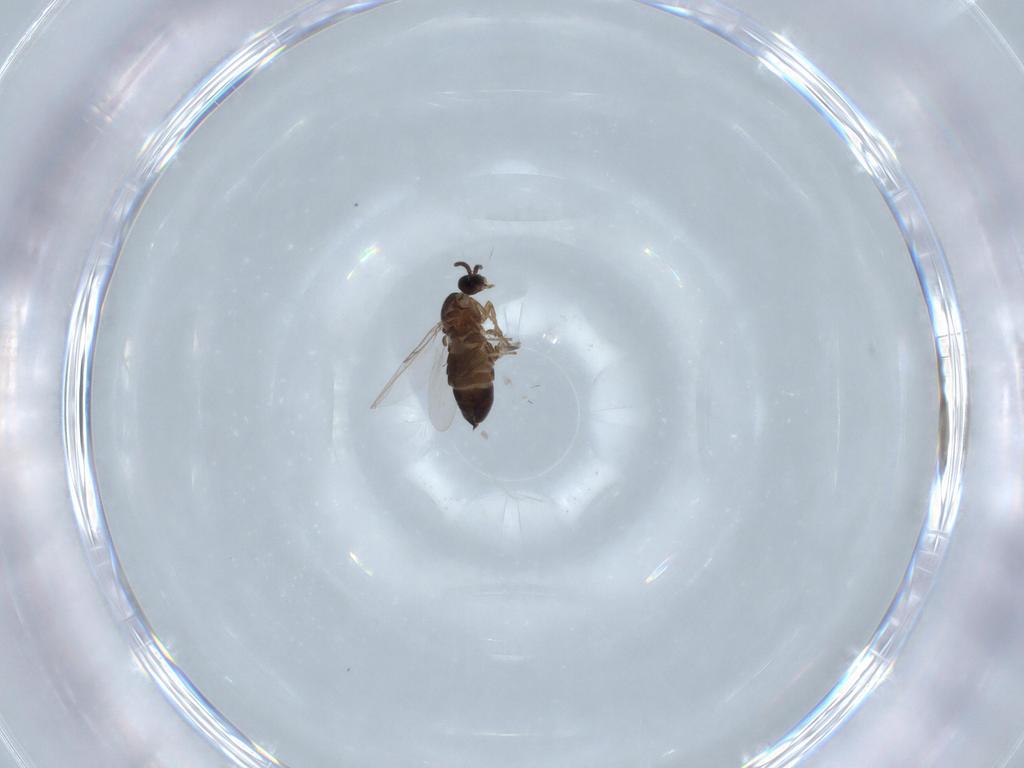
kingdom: Animalia
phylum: Arthropoda
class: Insecta
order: Diptera
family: Scatopsidae
